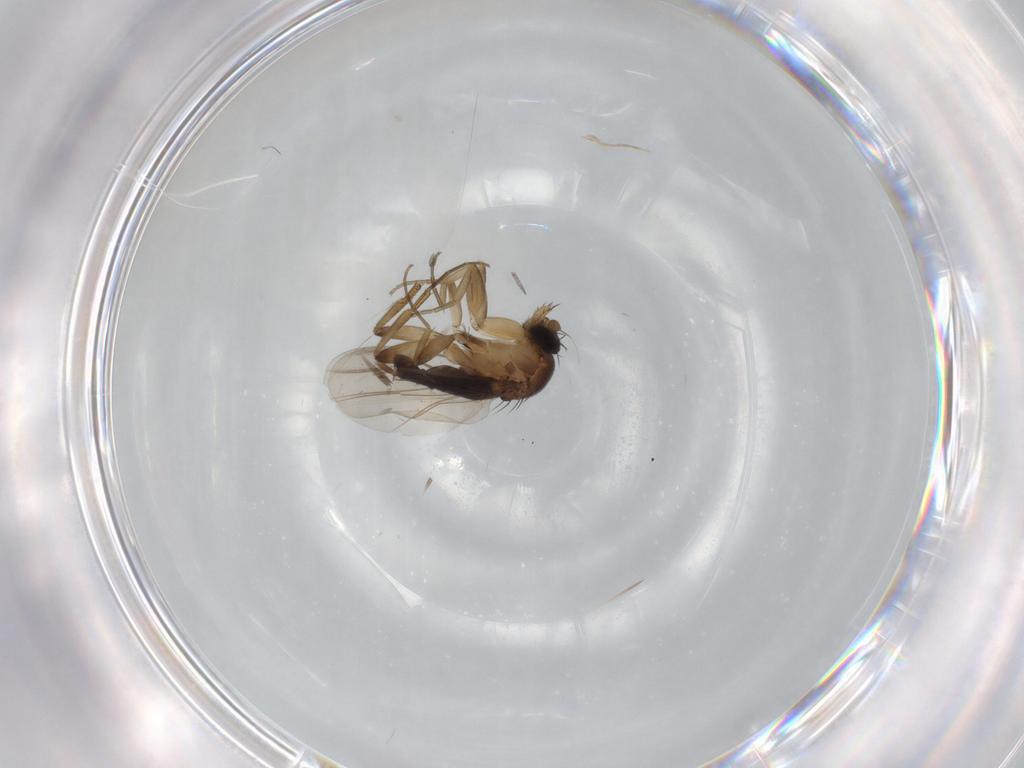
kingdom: Animalia
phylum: Arthropoda
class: Insecta
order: Diptera
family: Phoridae
